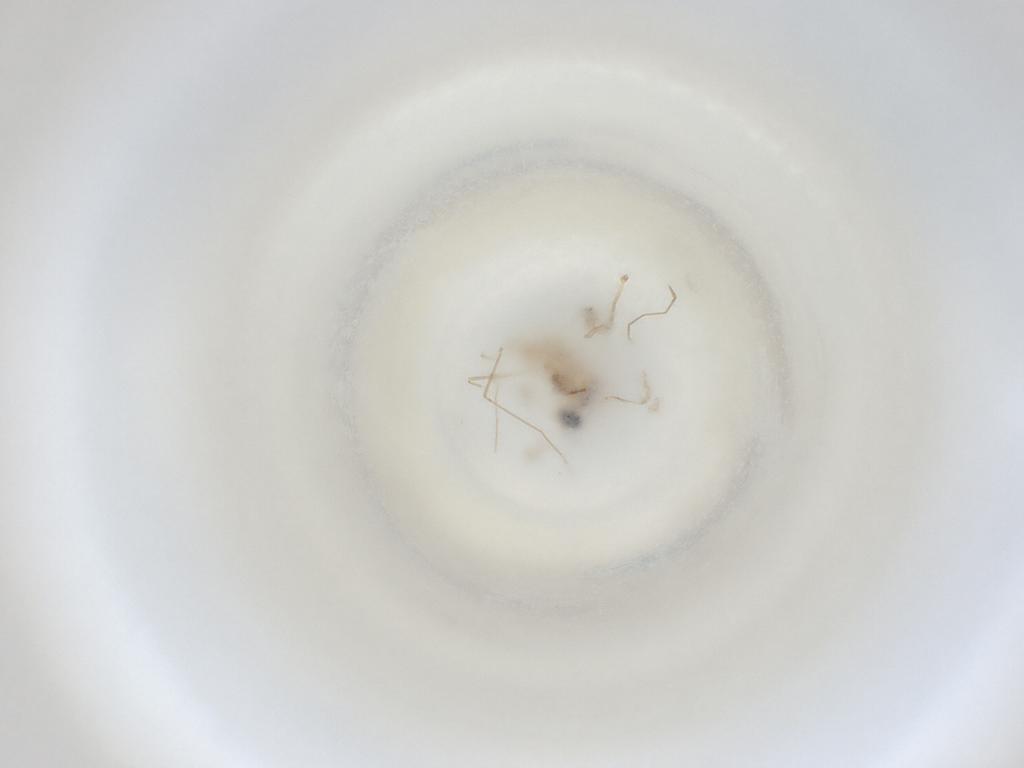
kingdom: Animalia
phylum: Arthropoda
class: Insecta
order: Diptera
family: Cecidomyiidae
